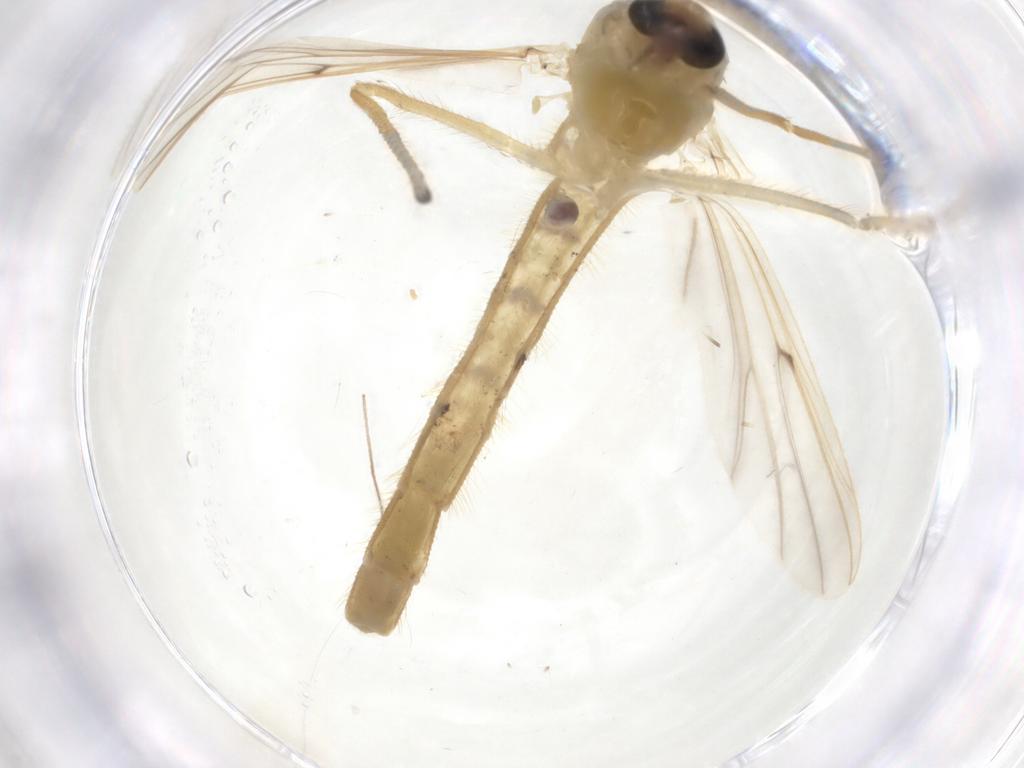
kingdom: Animalia
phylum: Arthropoda
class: Insecta
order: Diptera
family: Chironomidae
